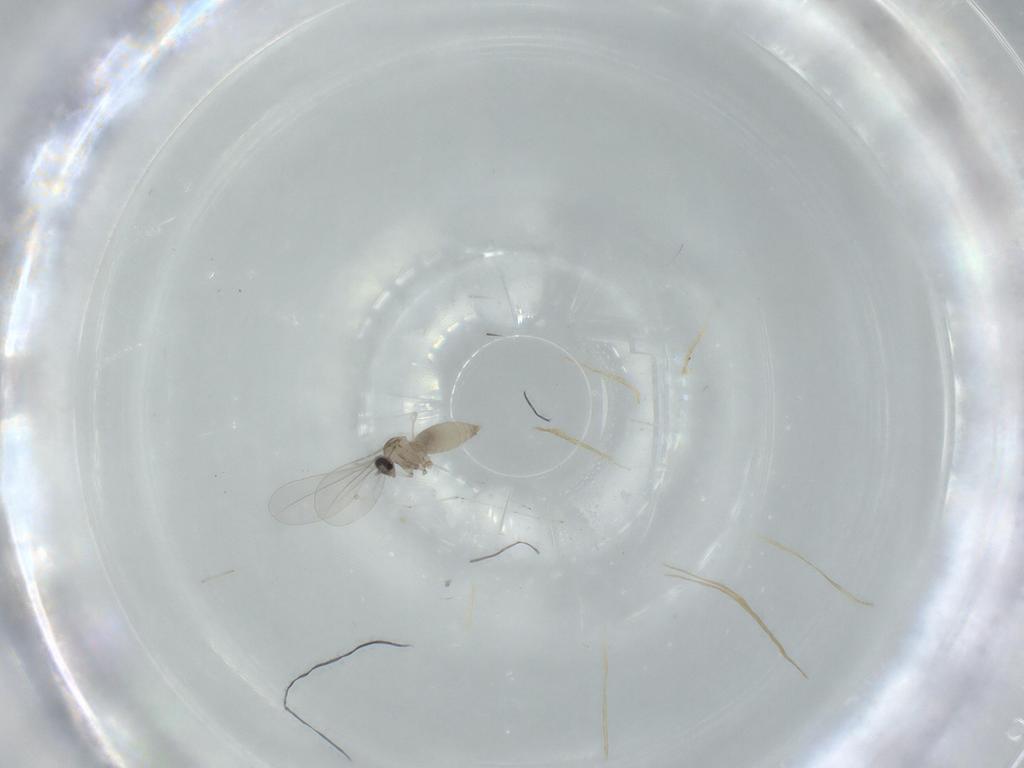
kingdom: Animalia
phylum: Arthropoda
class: Insecta
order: Diptera
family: Cecidomyiidae
